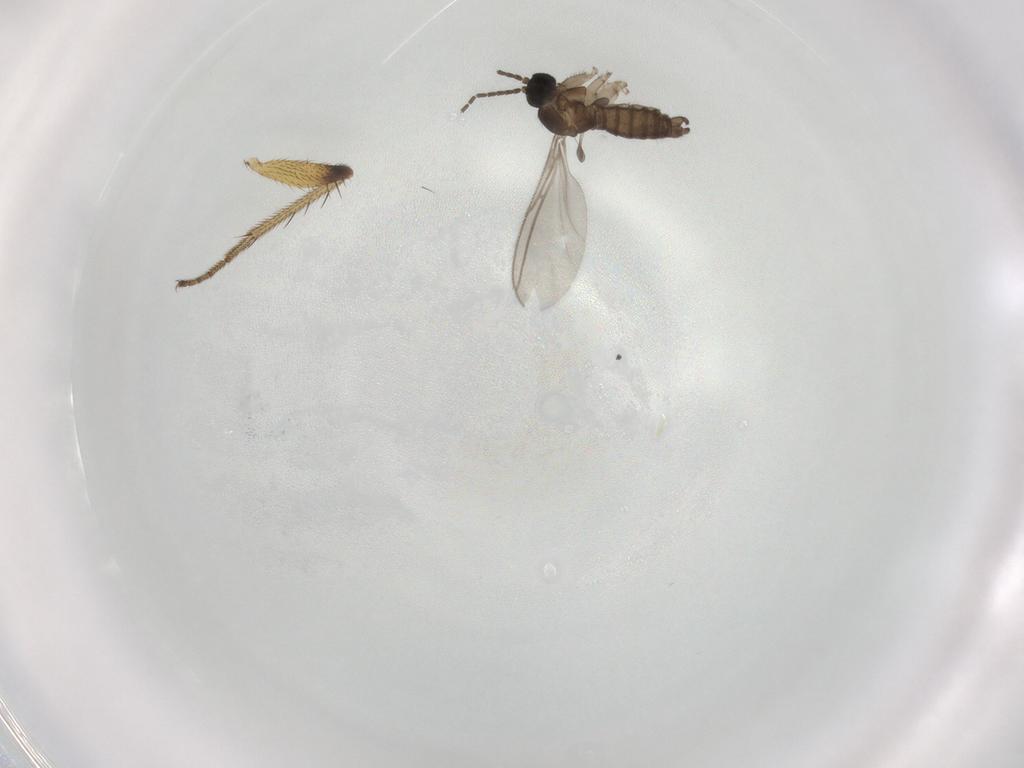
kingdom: Animalia
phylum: Arthropoda
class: Insecta
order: Diptera
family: Sciaridae
